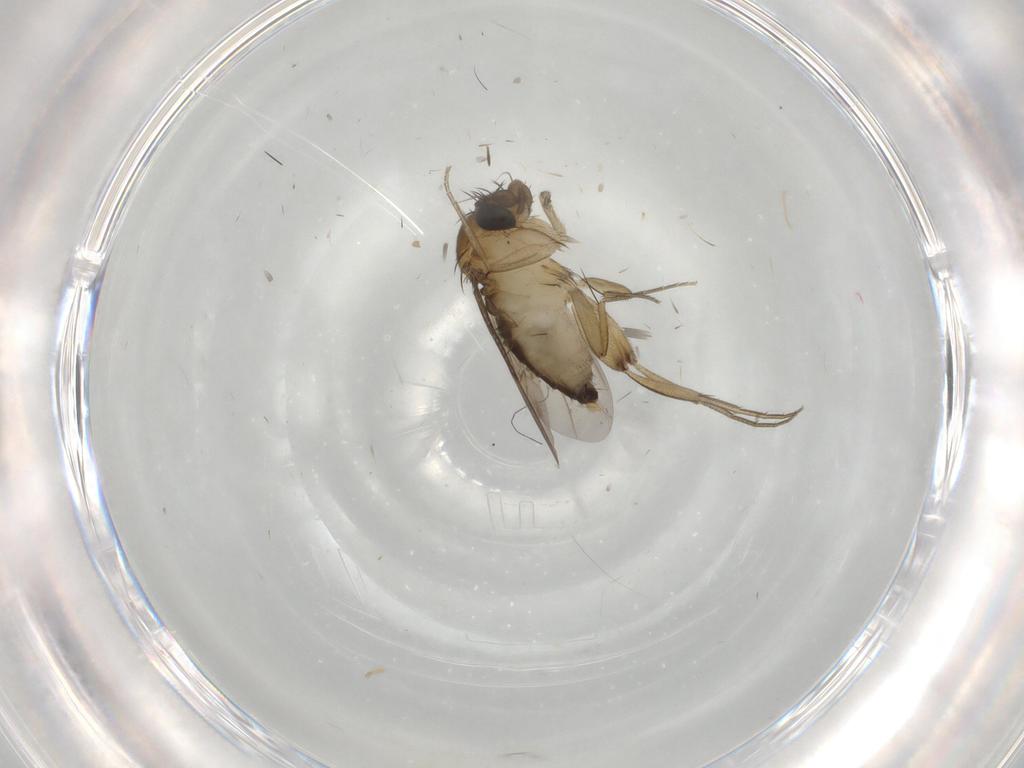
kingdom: Animalia
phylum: Arthropoda
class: Insecta
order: Diptera
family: Phoridae
